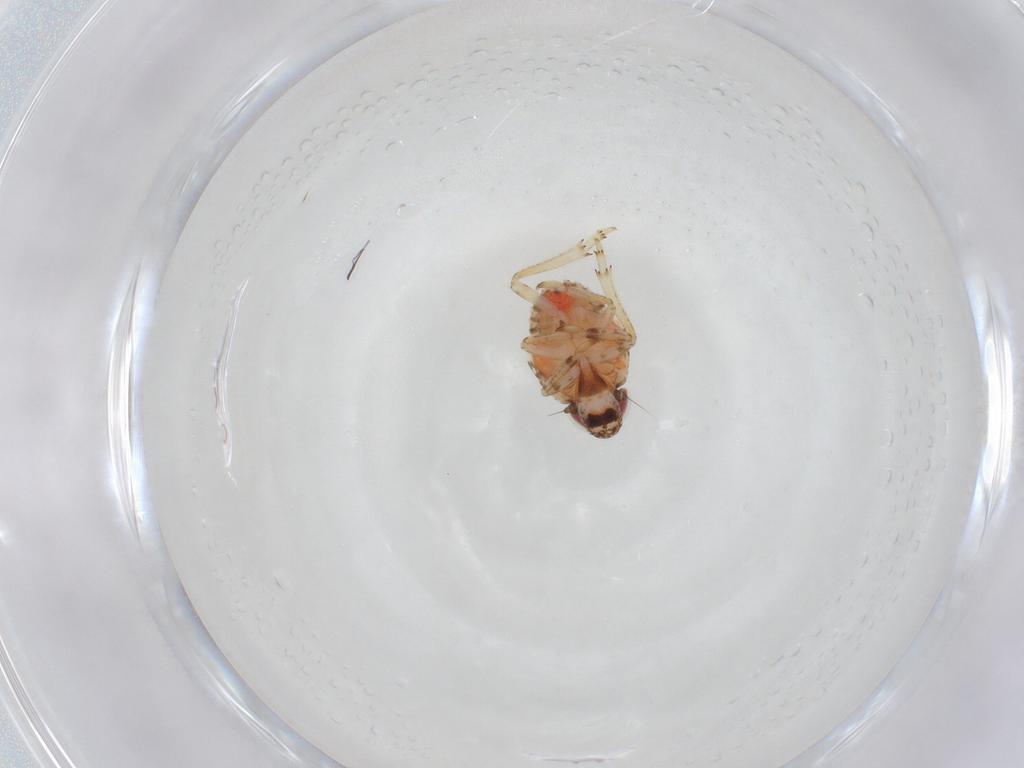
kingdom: Animalia
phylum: Arthropoda
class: Insecta
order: Hemiptera
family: Issidae
